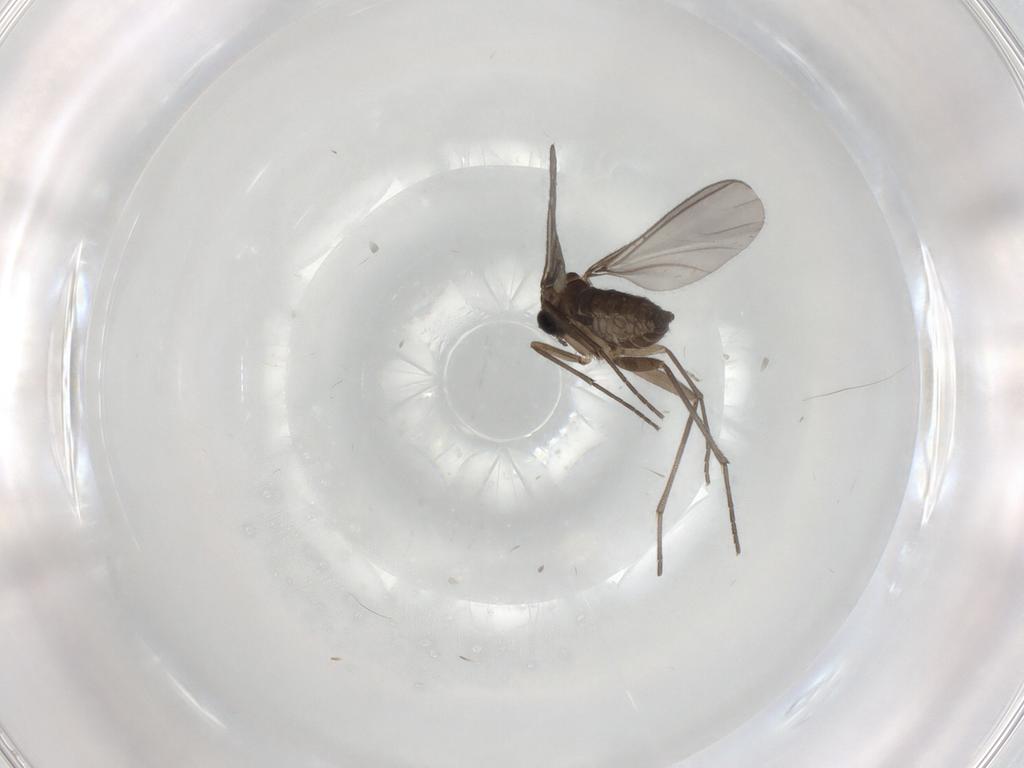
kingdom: Animalia
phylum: Arthropoda
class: Insecta
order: Diptera
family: Sciaridae
